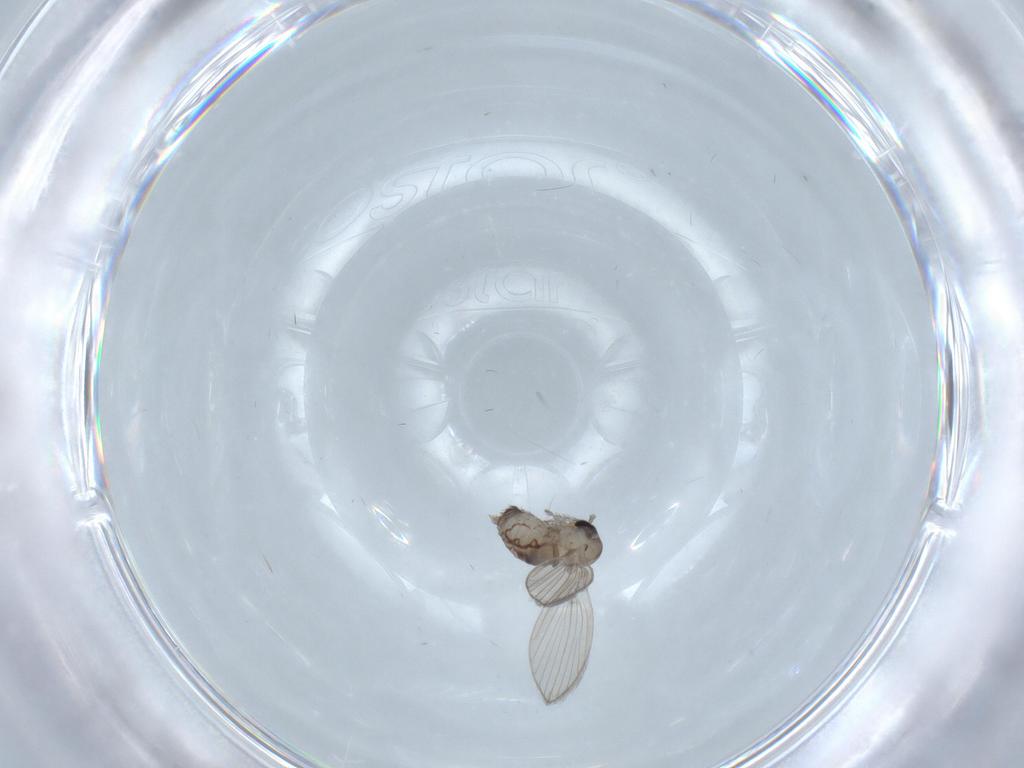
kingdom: Animalia
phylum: Arthropoda
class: Insecta
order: Diptera
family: Psychodidae
